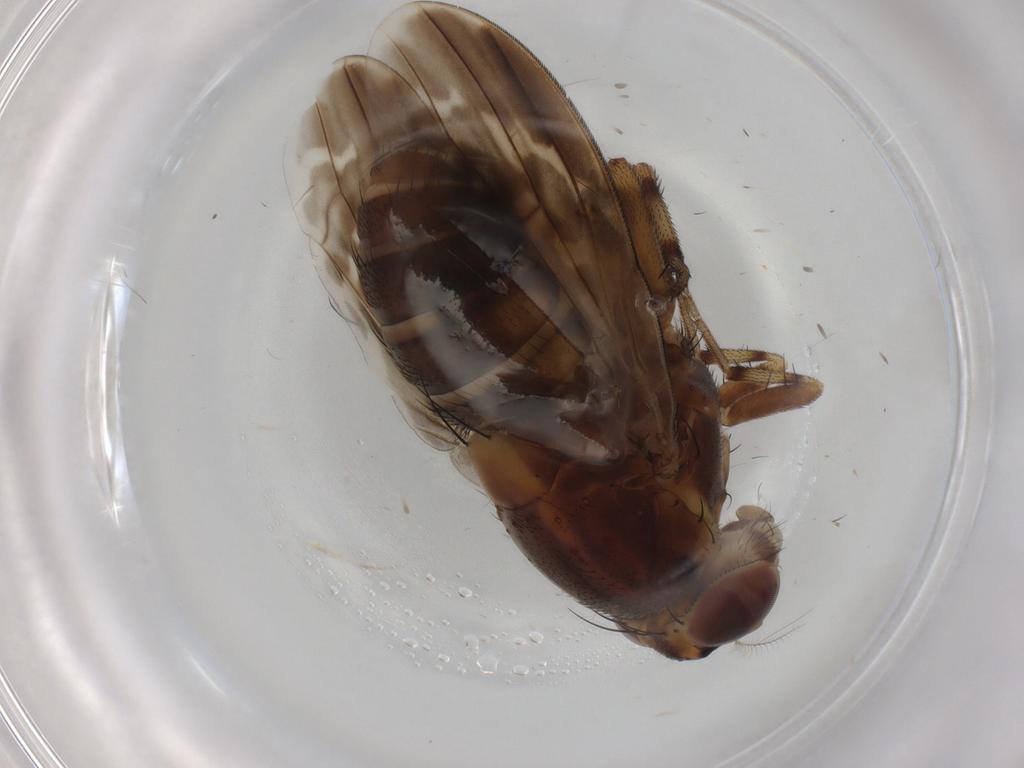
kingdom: Animalia
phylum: Arthropoda
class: Insecta
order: Diptera
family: Lauxaniidae
